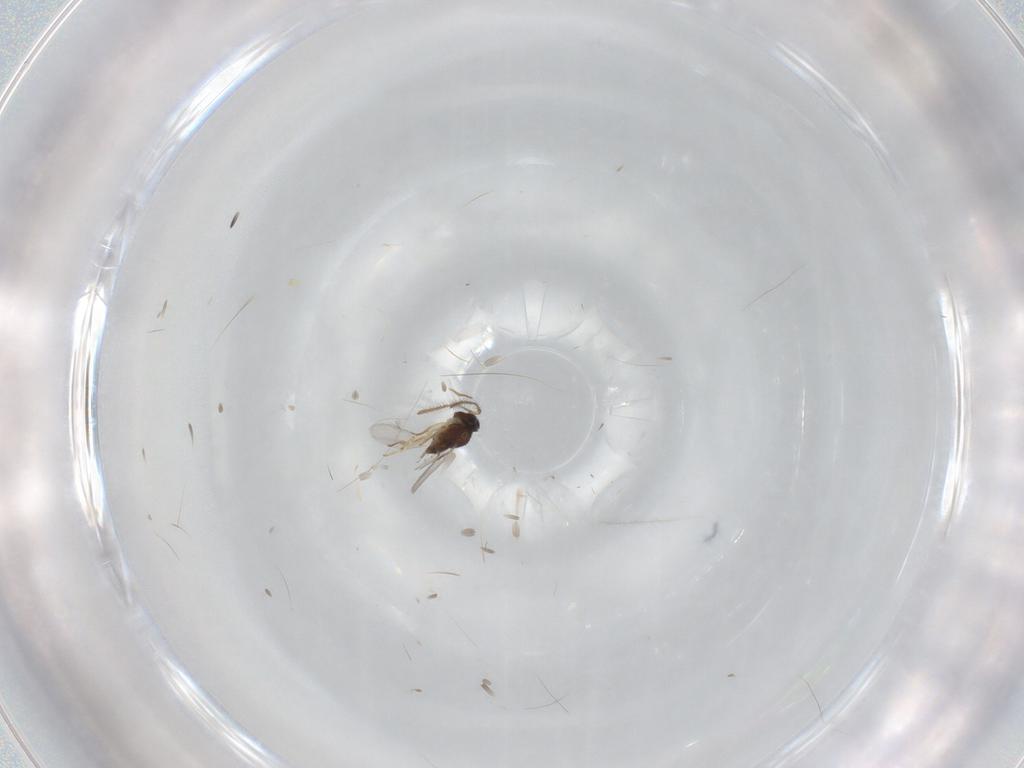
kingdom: Animalia
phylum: Arthropoda
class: Insecta
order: Hymenoptera
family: Encyrtidae
